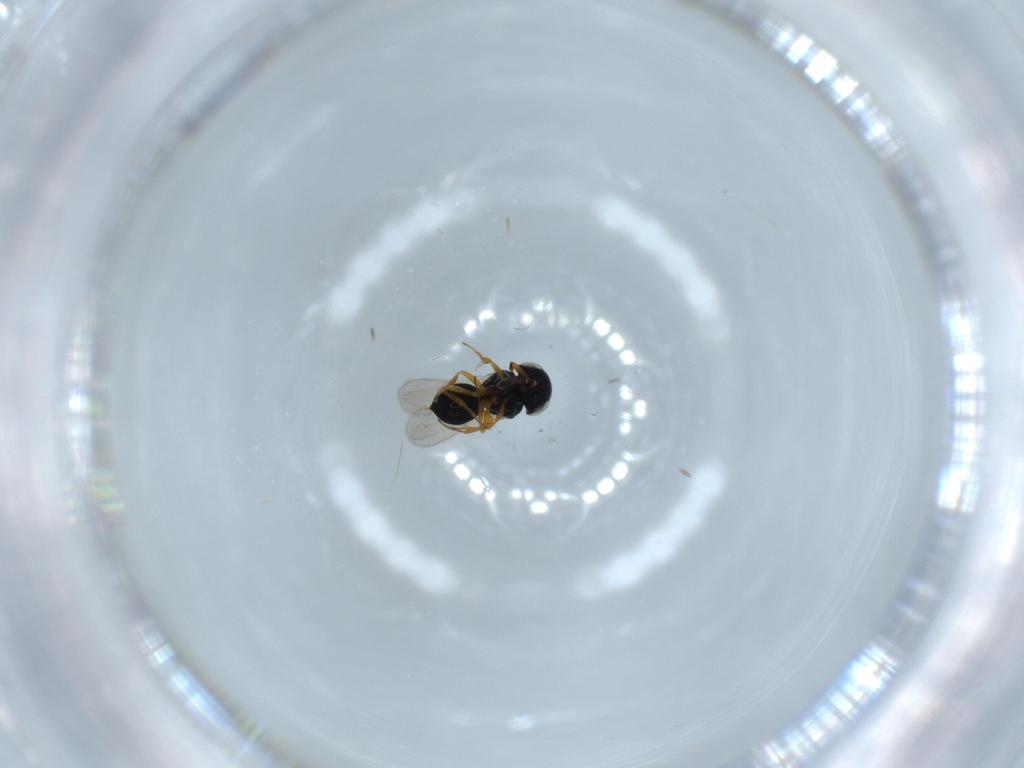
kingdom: Animalia
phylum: Arthropoda
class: Insecta
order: Hymenoptera
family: Scelionidae
